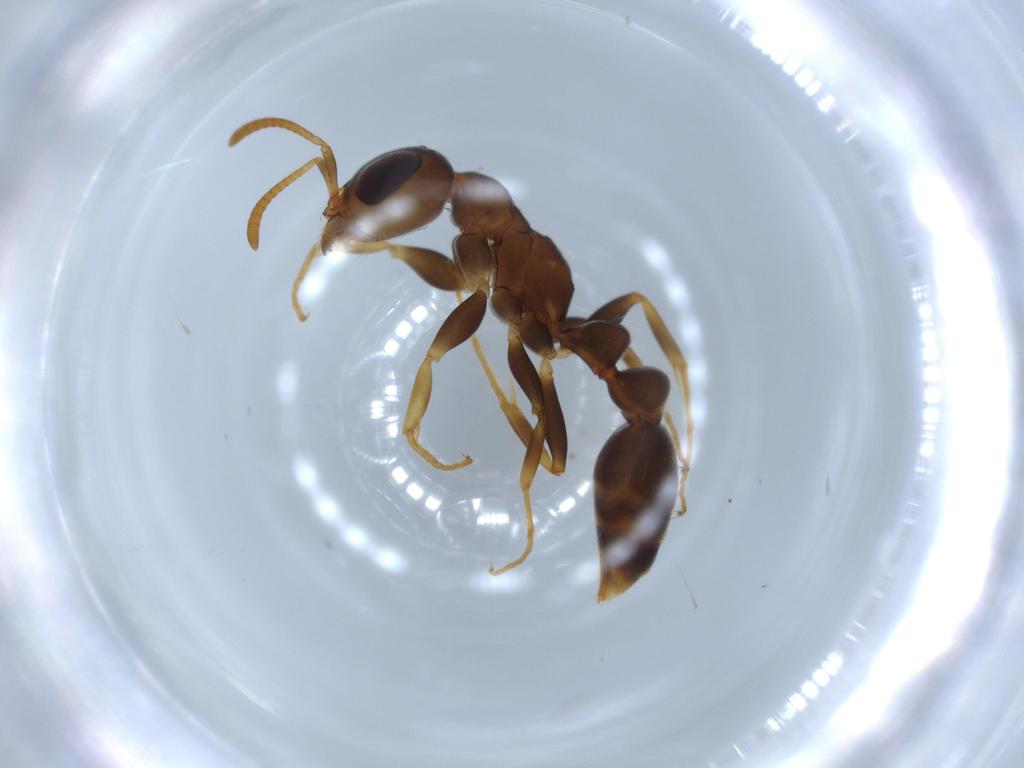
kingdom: Animalia
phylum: Arthropoda
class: Insecta
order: Hymenoptera
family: Formicidae
